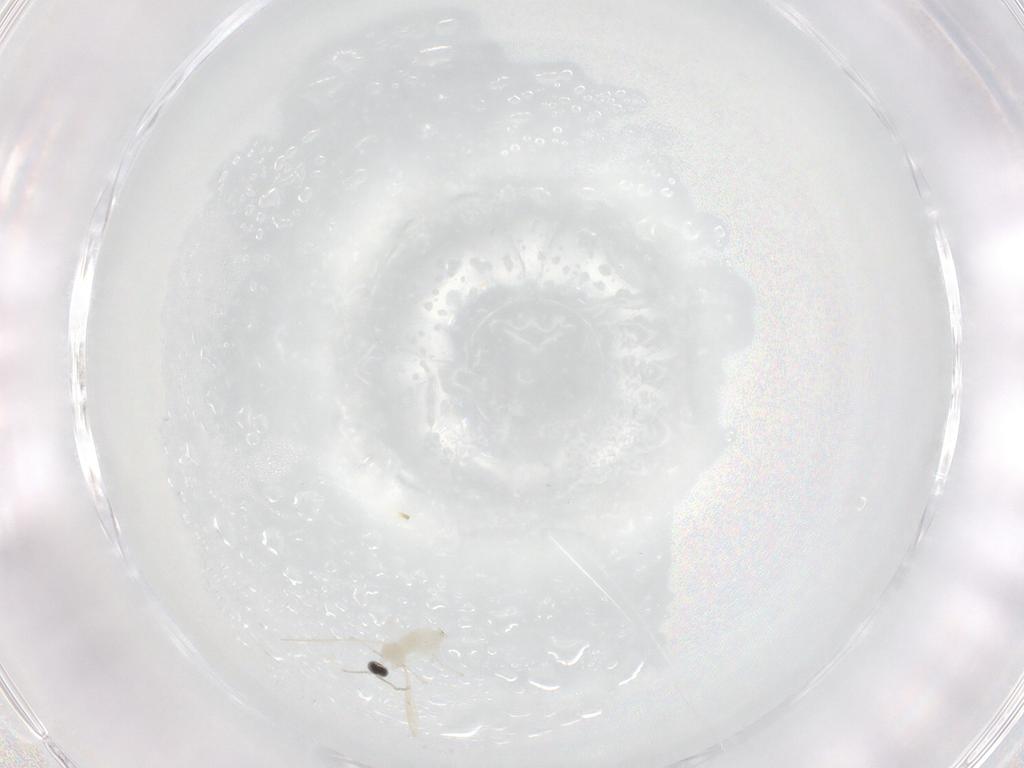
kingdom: Animalia
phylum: Arthropoda
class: Insecta
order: Diptera
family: Cecidomyiidae
